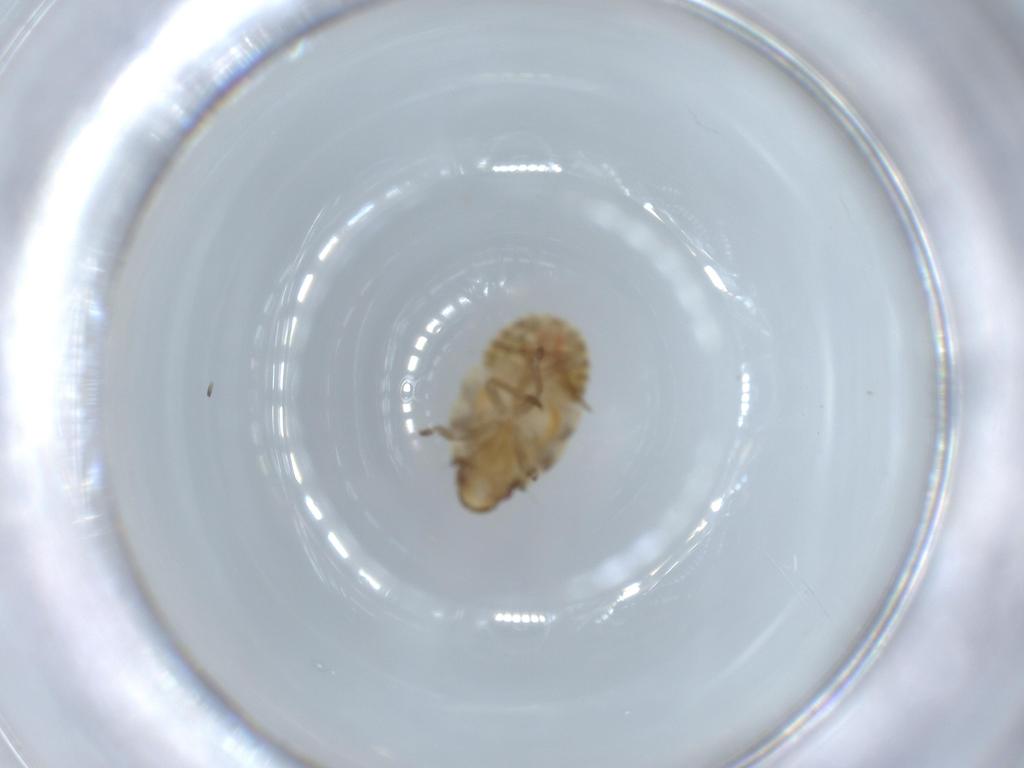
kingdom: Animalia
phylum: Arthropoda
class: Insecta
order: Hemiptera
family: Flatidae
